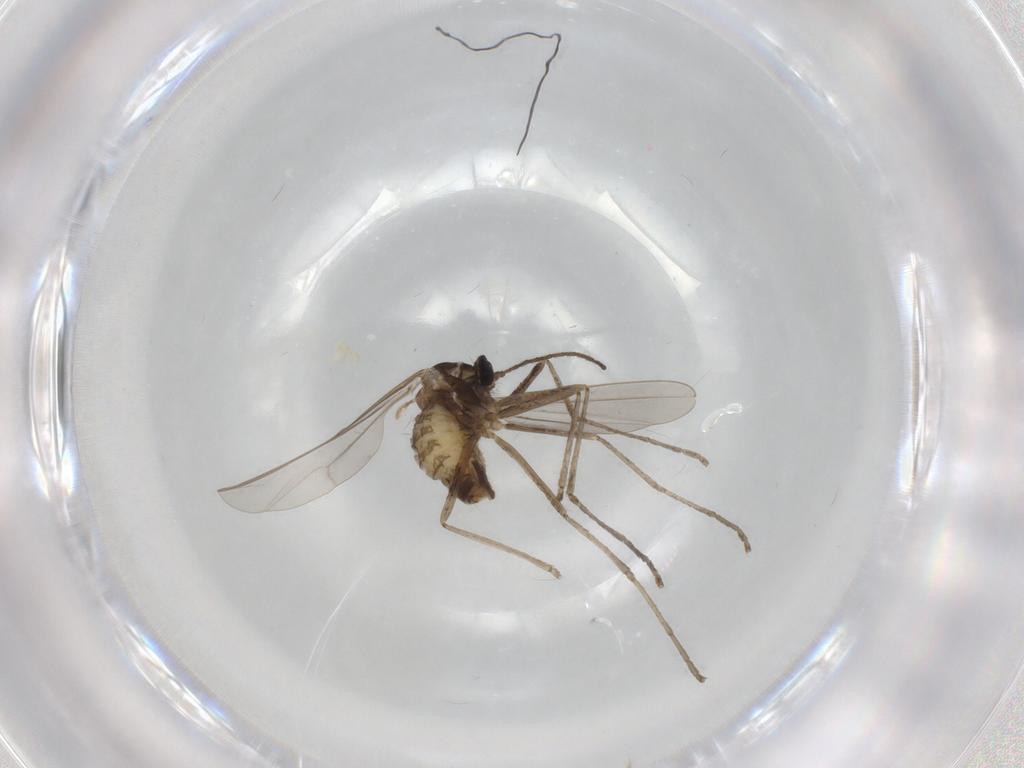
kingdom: Animalia
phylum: Arthropoda
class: Insecta
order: Diptera
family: Cecidomyiidae
